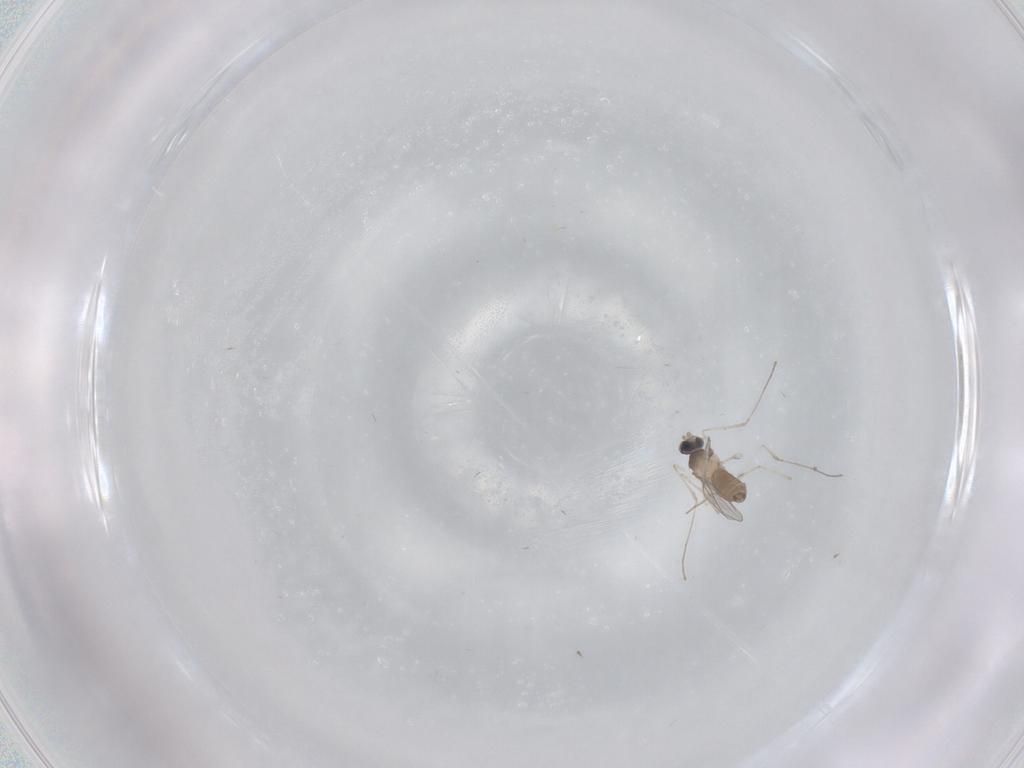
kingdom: Animalia
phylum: Arthropoda
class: Insecta
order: Diptera
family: Cecidomyiidae
